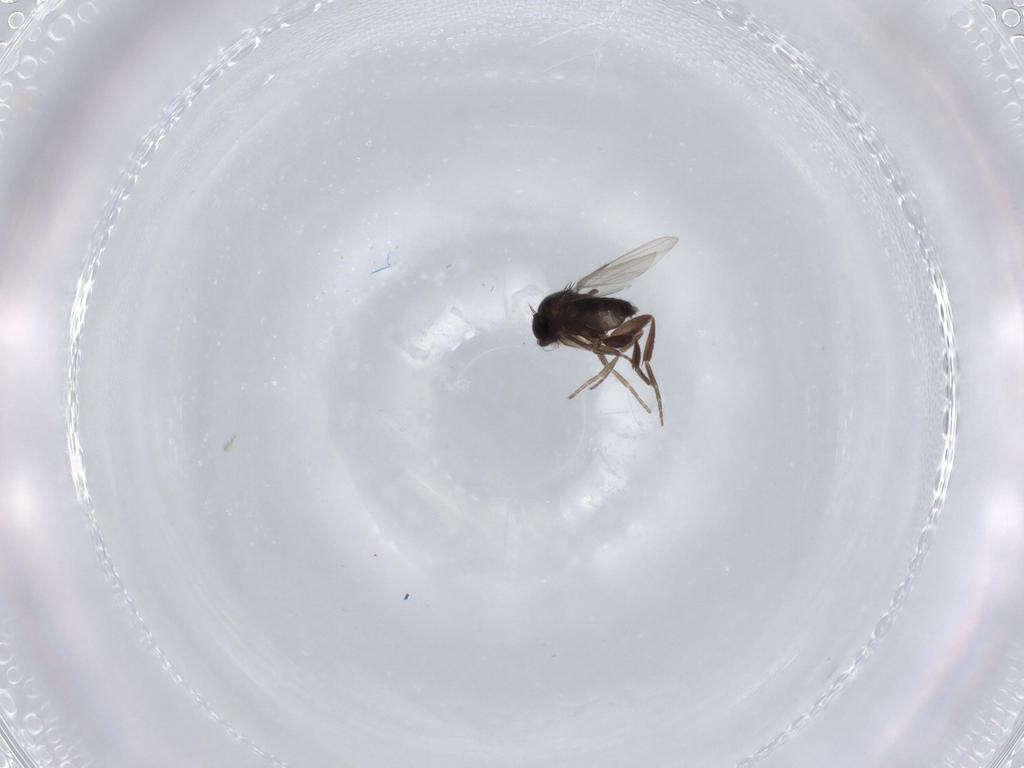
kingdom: Animalia
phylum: Arthropoda
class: Insecta
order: Diptera
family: Phoridae
